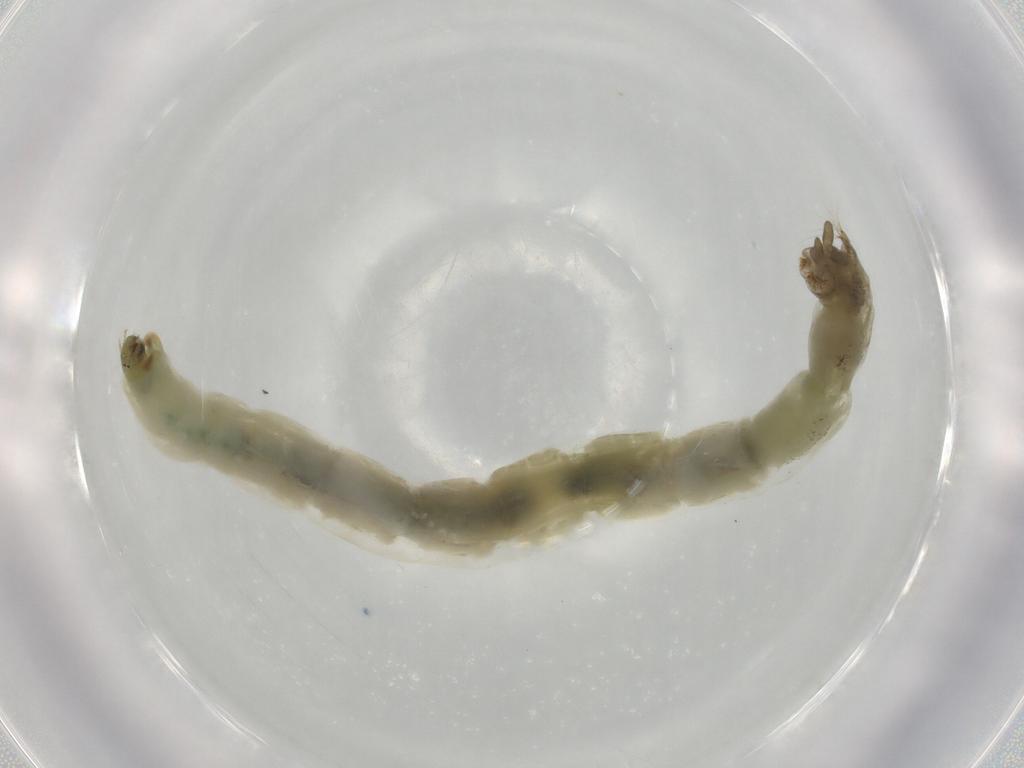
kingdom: Animalia
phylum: Arthropoda
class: Insecta
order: Diptera
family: Chironomidae
